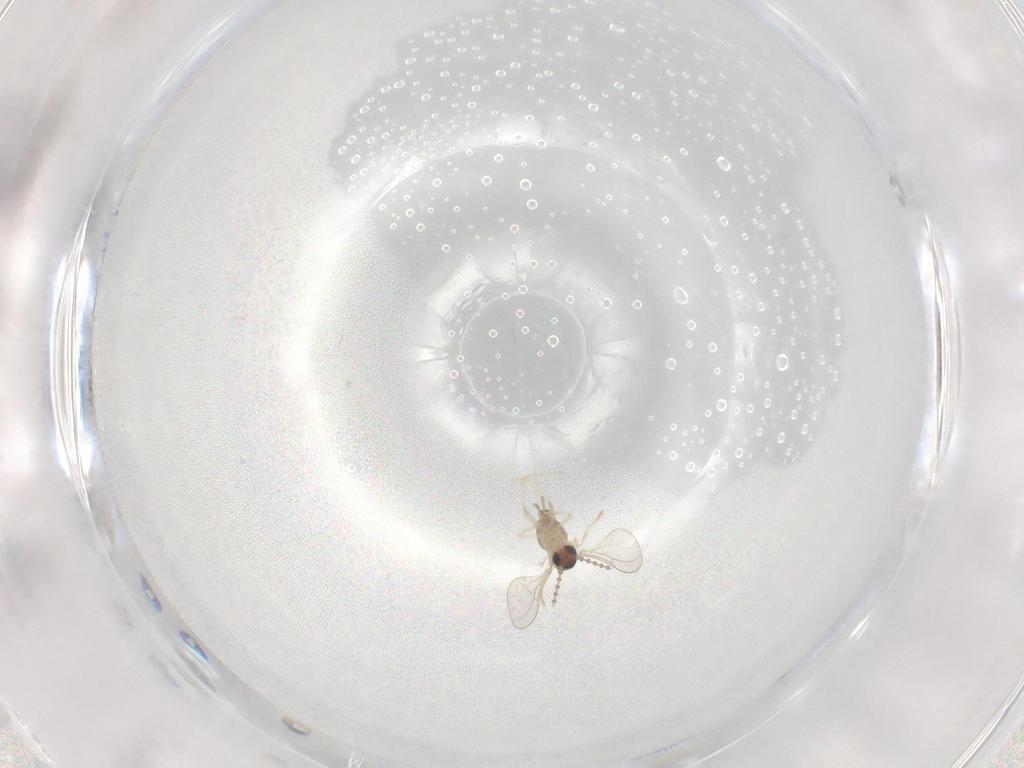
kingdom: Animalia
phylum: Arthropoda
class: Insecta
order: Diptera
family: Cecidomyiidae
